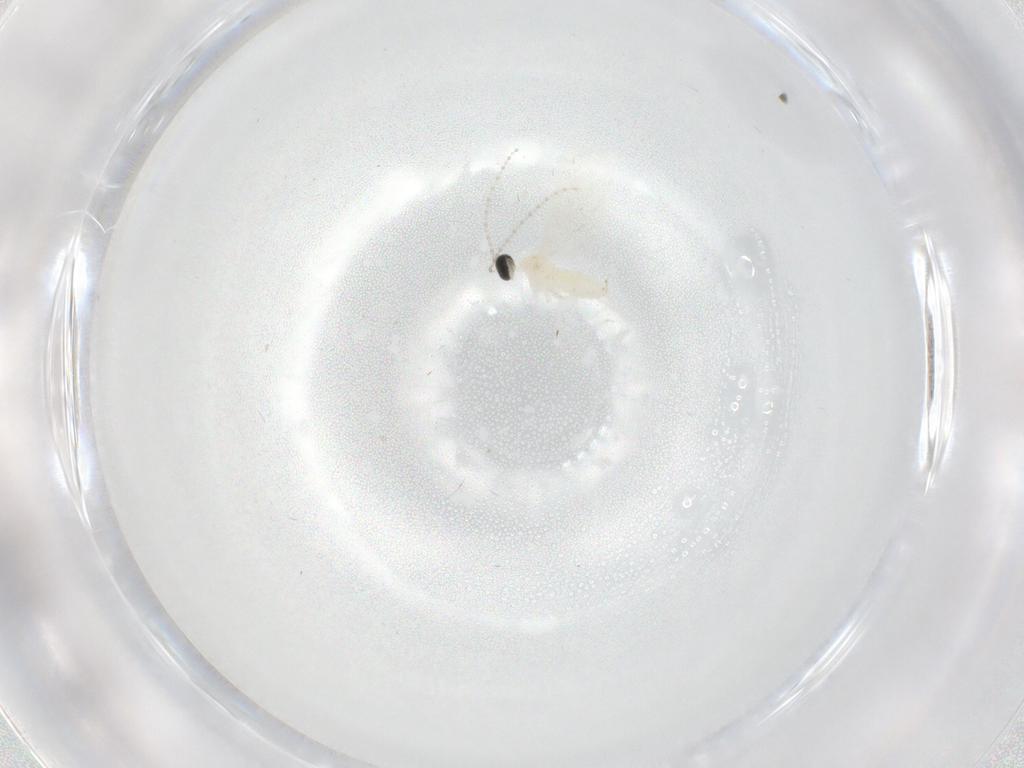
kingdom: Animalia
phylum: Arthropoda
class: Insecta
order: Diptera
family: Cecidomyiidae
